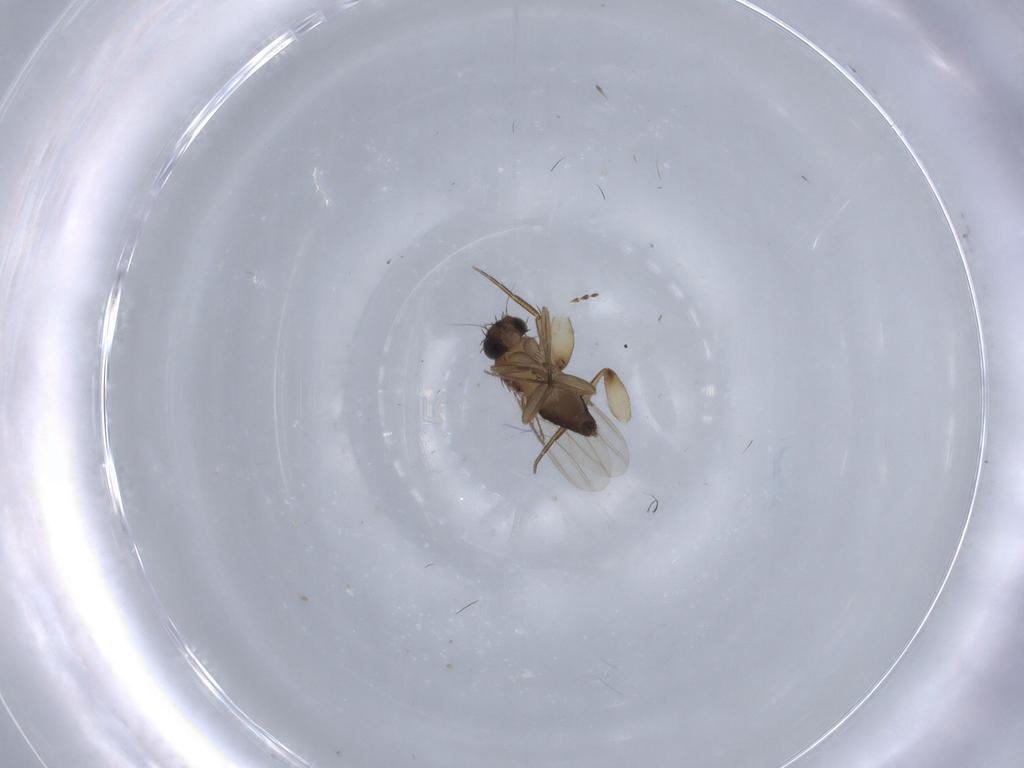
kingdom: Animalia
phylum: Arthropoda
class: Insecta
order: Diptera
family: Phoridae
